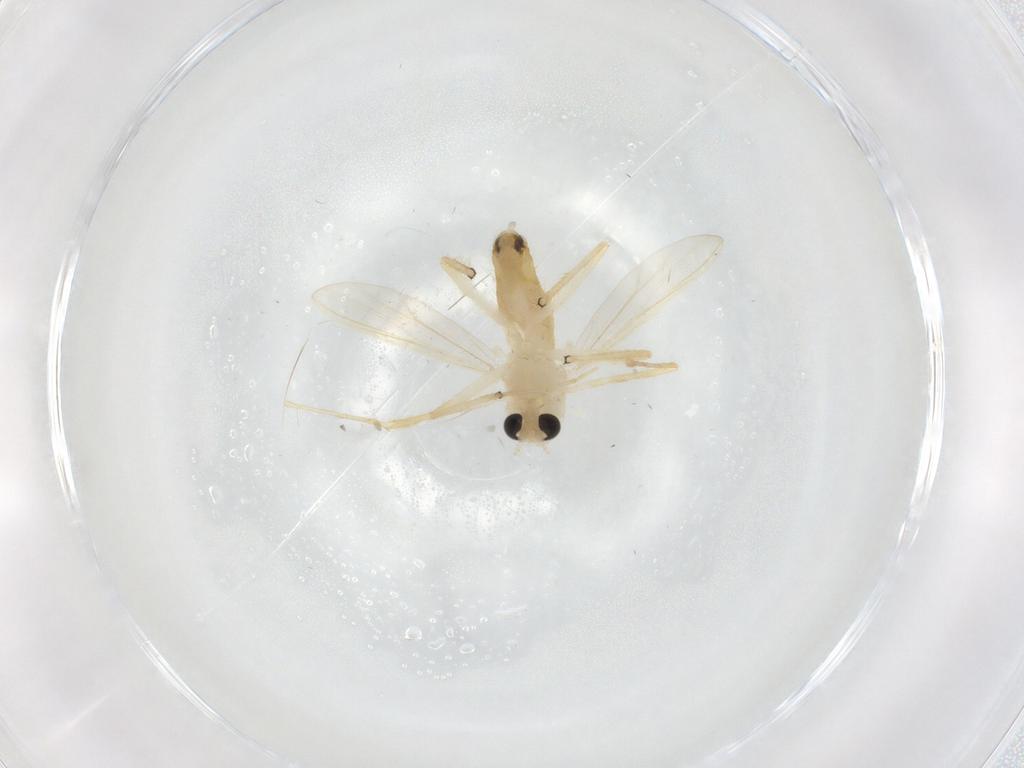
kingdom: Animalia
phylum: Arthropoda
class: Insecta
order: Diptera
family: Chironomidae
